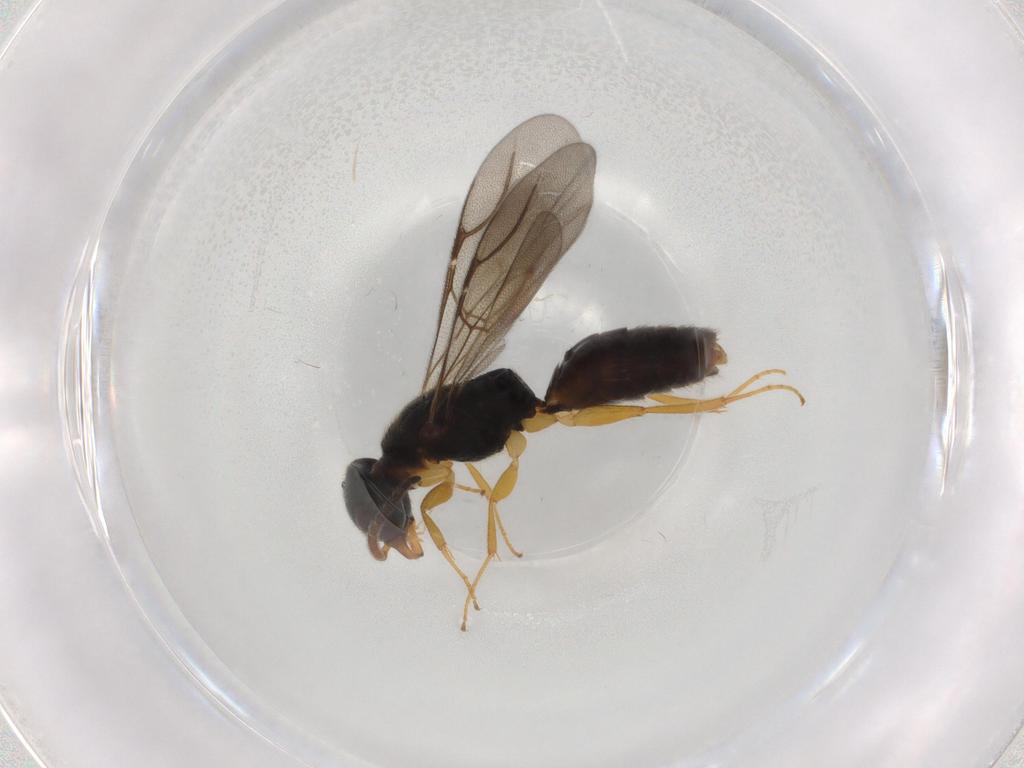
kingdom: Animalia
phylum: Arthropoda
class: Insecta
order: Hymenoptera
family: Bethylidae
